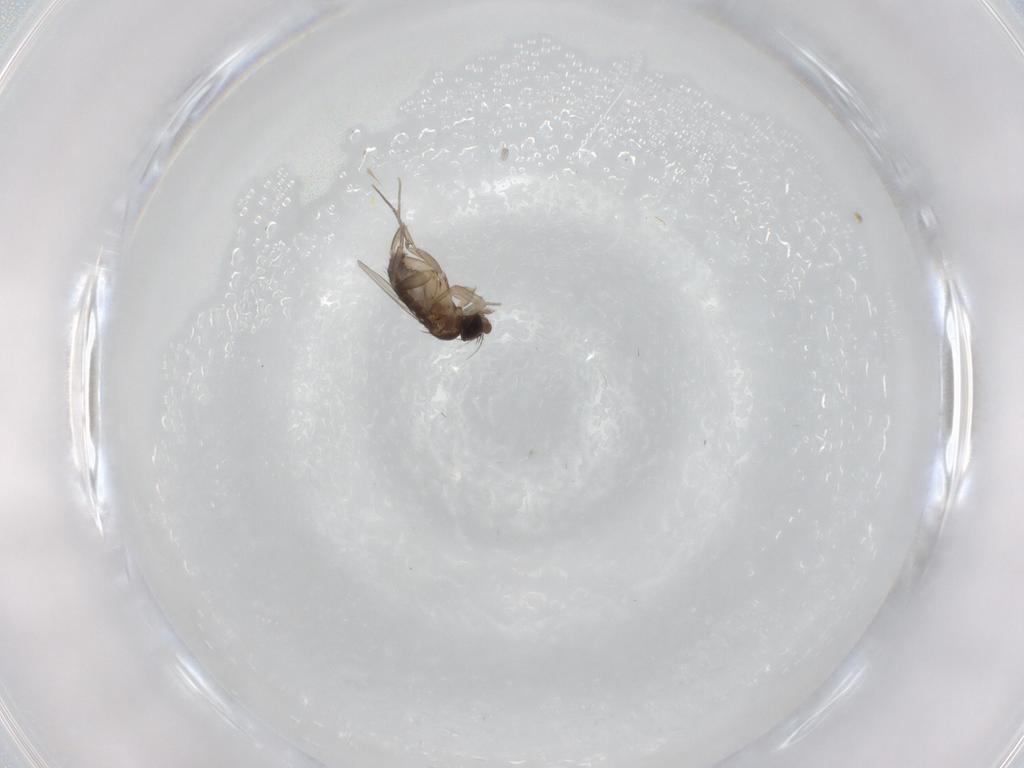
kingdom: Animalia
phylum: Arthropoda
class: Insecta
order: Diptera
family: Phoridae
